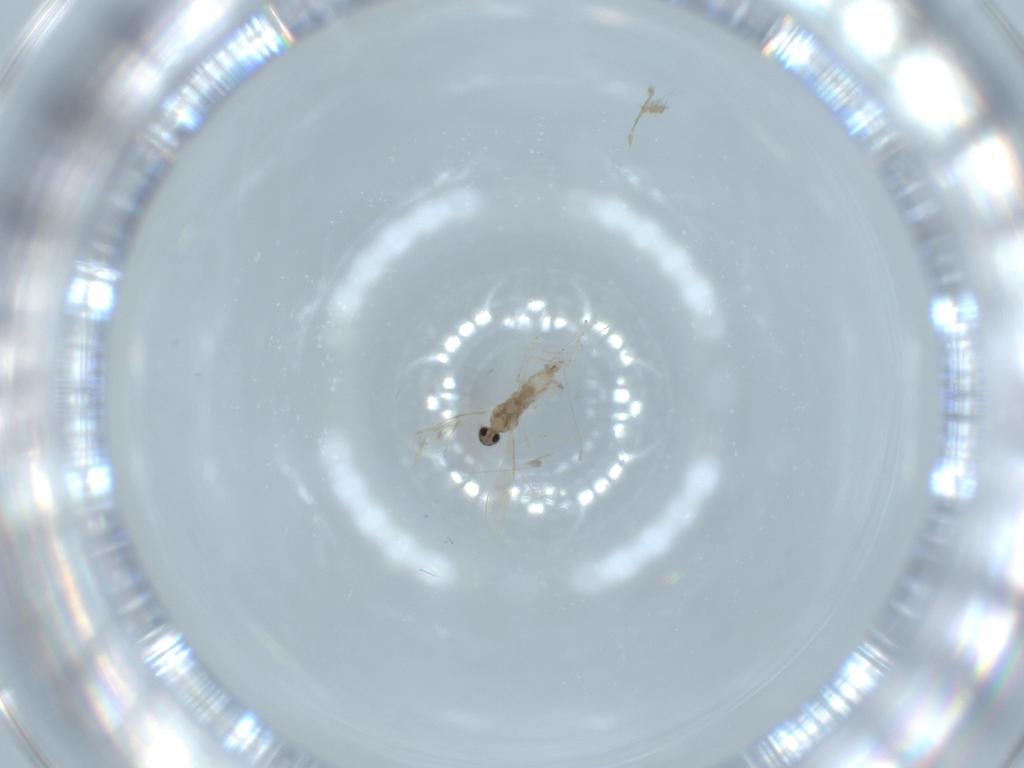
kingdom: Animalia
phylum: Arthropoda
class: Insecta
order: Diptera
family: Cecidomyiidae
